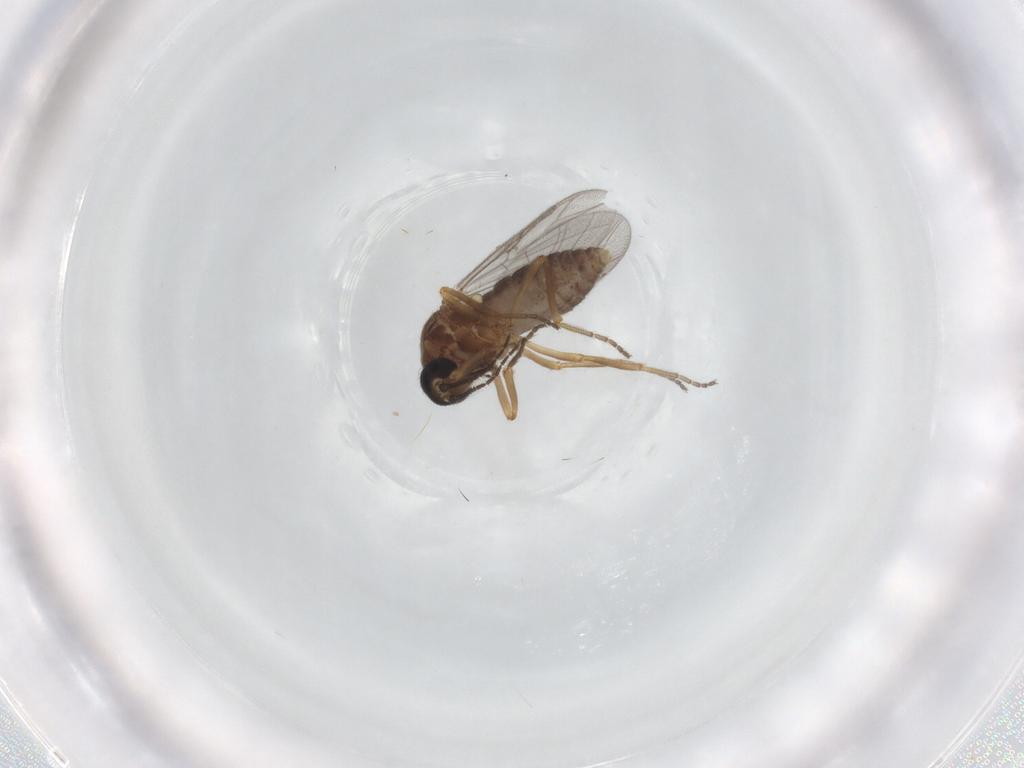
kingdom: Animalia
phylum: Arthropoda
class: Insecta
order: Diptera
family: Ceratopogonidae
